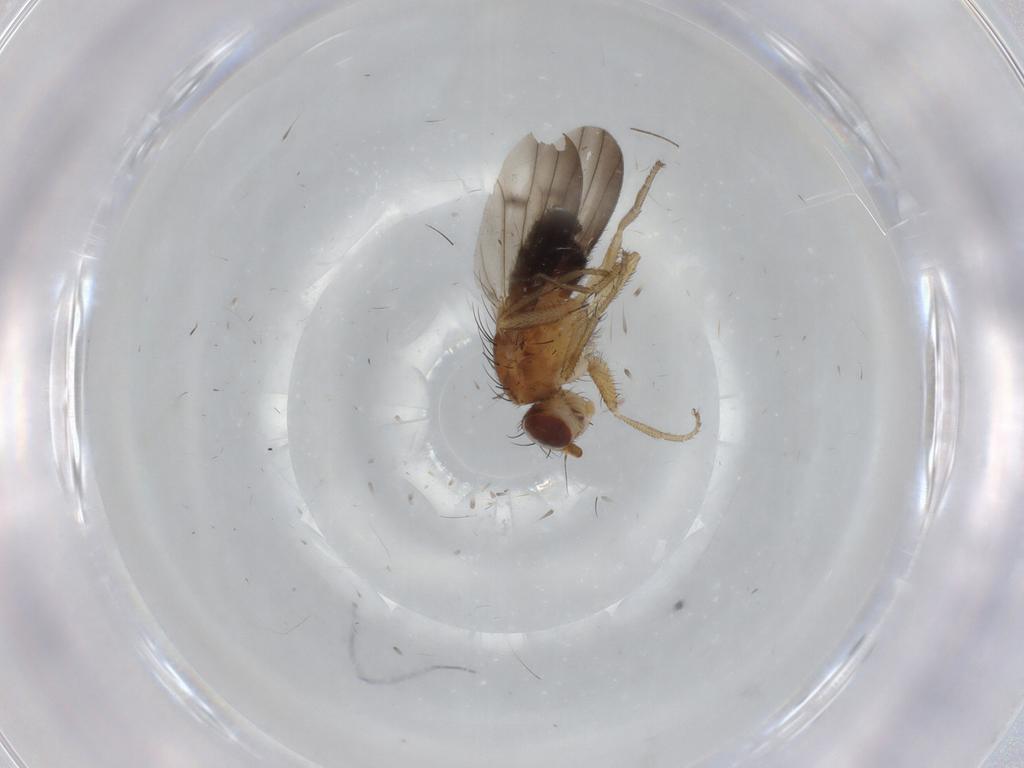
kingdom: Animalia
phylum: Arthropoda
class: Insecta
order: Diptera
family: Heleomyzidae
